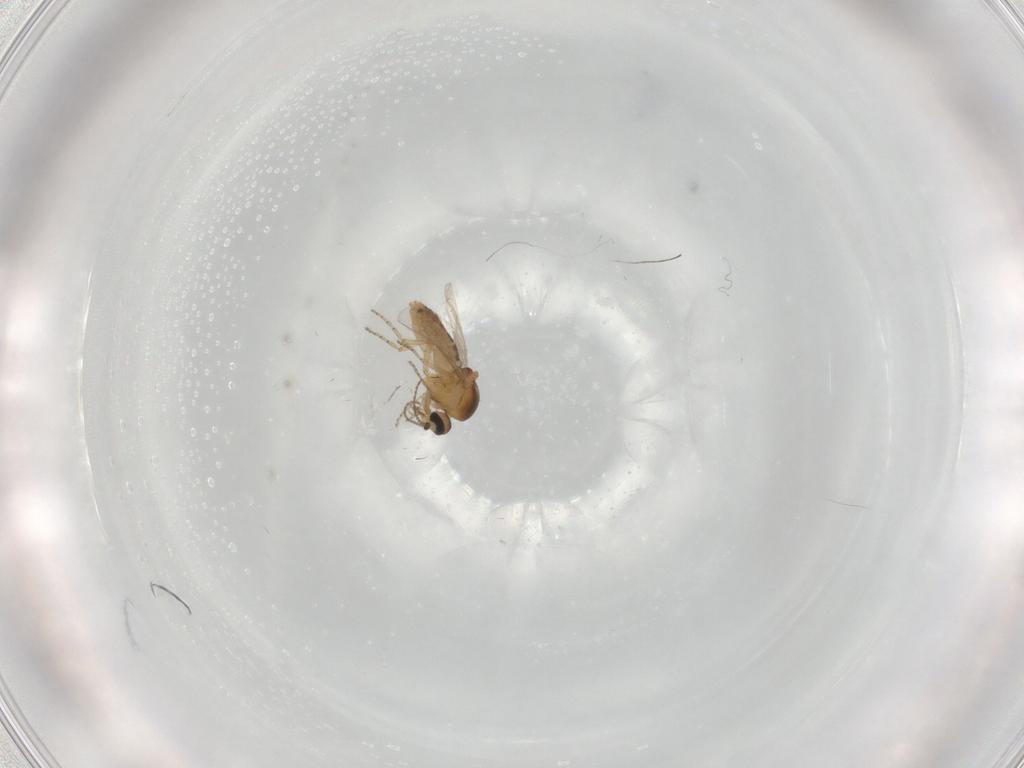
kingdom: Animalia
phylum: Arthropoda
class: Insecta
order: Diptera
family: Ceratopogonidae
